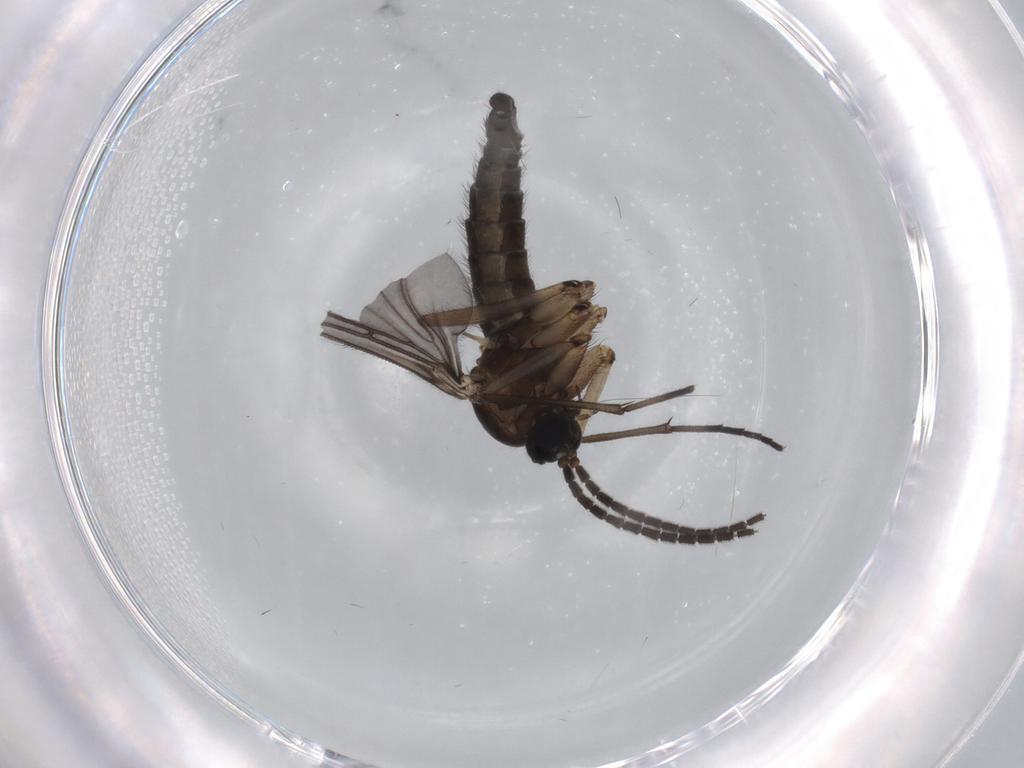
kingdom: Animalia
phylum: Arthropoda
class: Insecta
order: Diptera
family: Sciaridae
